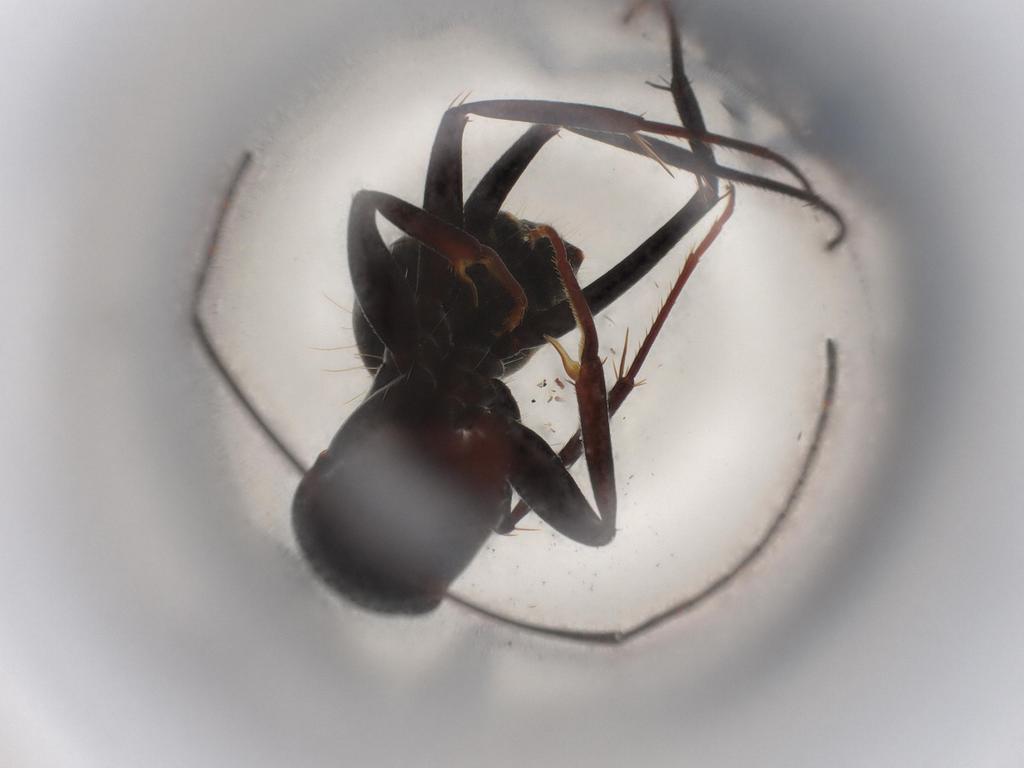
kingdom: Animalia
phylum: Arthropoda
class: Insecta
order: Hymenoptera
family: Formicidae
